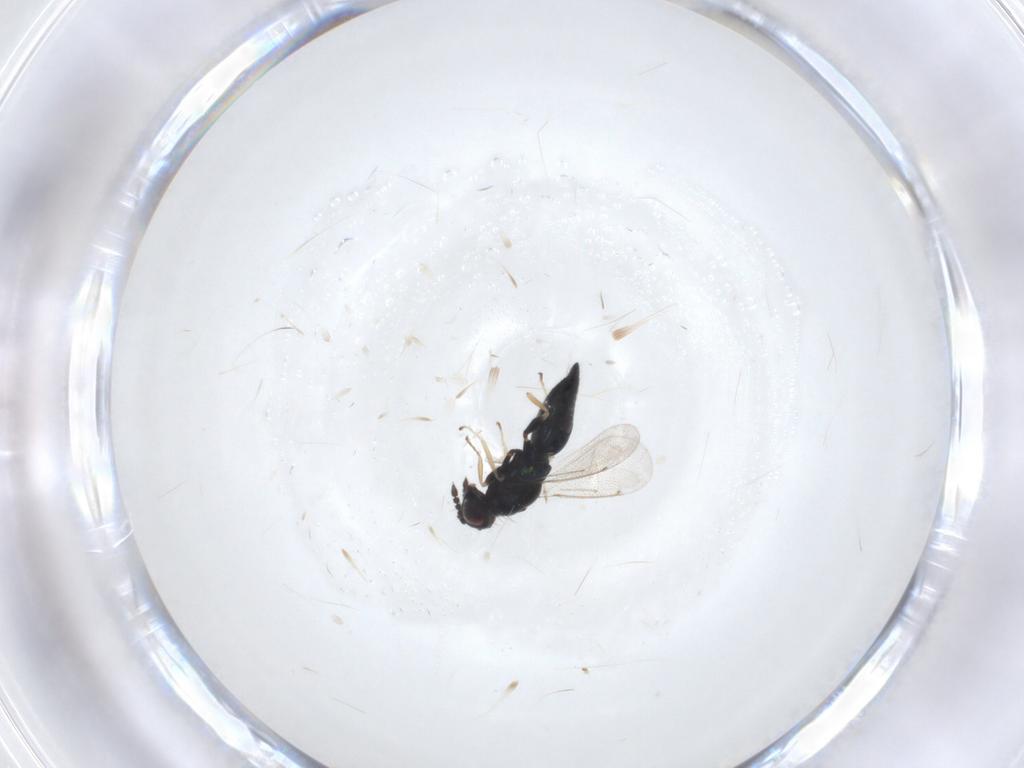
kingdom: Animalia
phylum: Arthropoda
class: Insecta
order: Hymenoptera
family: Eulophidae
